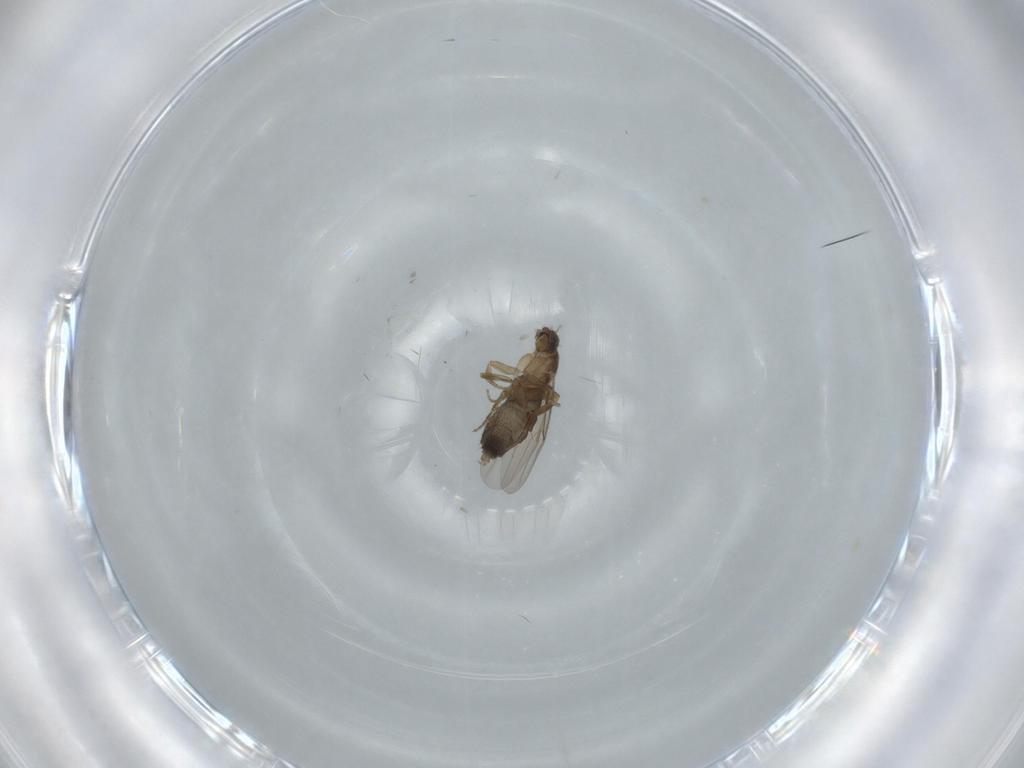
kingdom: Animalia
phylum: Arthropoda
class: Insecta
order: Diptera
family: Phoridae
